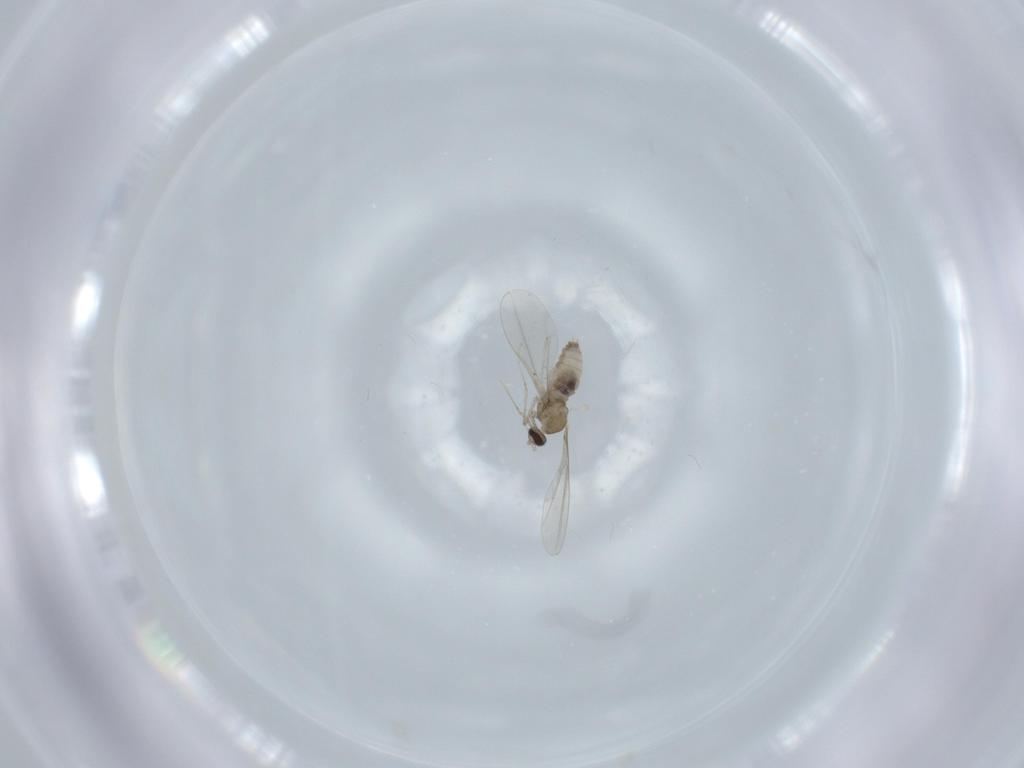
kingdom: Animalia
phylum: Arthropoda
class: Insecta
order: Diptera
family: Cecidomyiidae
